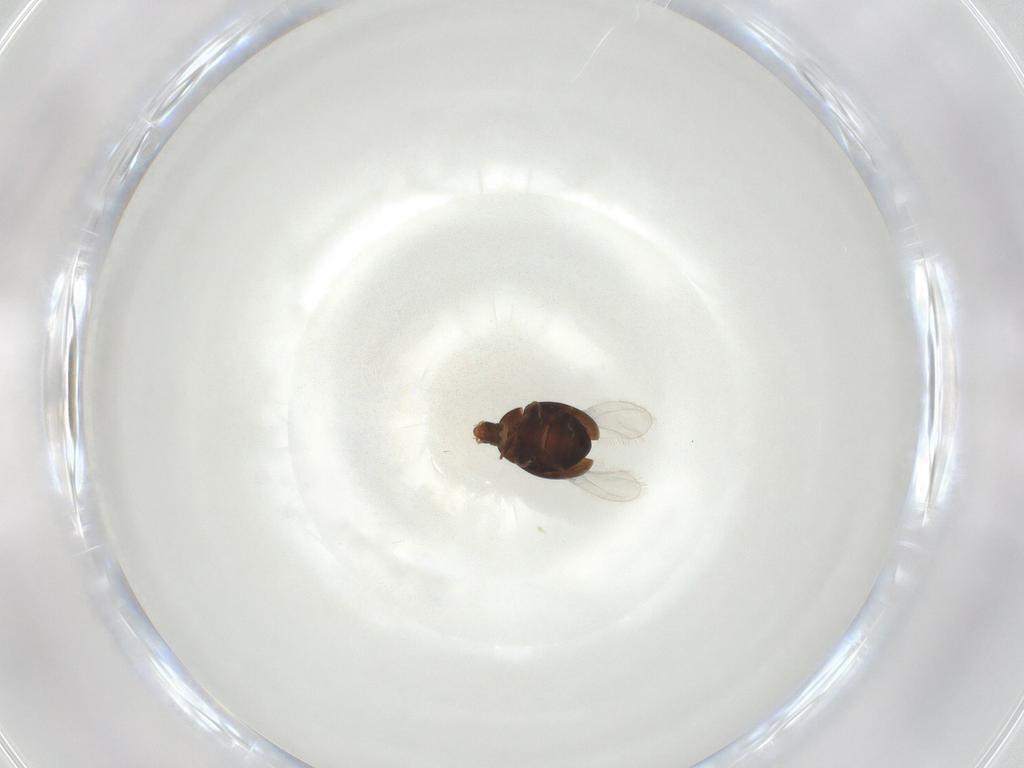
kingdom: Animalia
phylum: Arthropoda
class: Insecta
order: Coleoptera
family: Corylophidae
